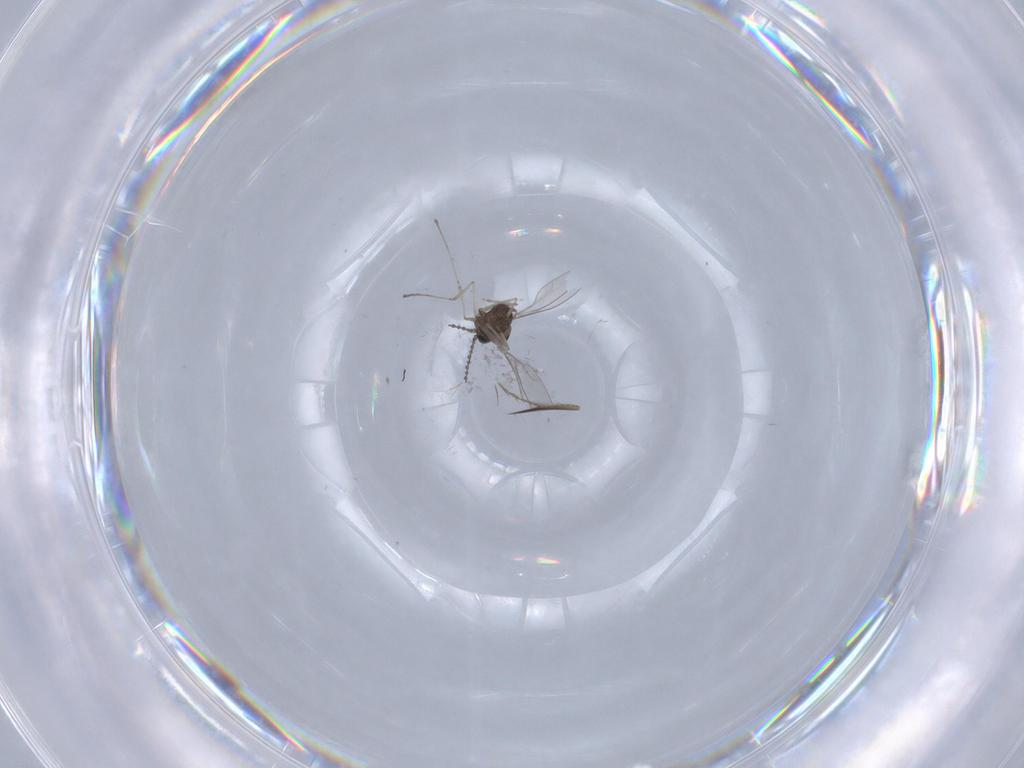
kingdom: Animalia
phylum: Arthropoda
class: Insecta
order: Diptera
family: Cecidomyiidae
